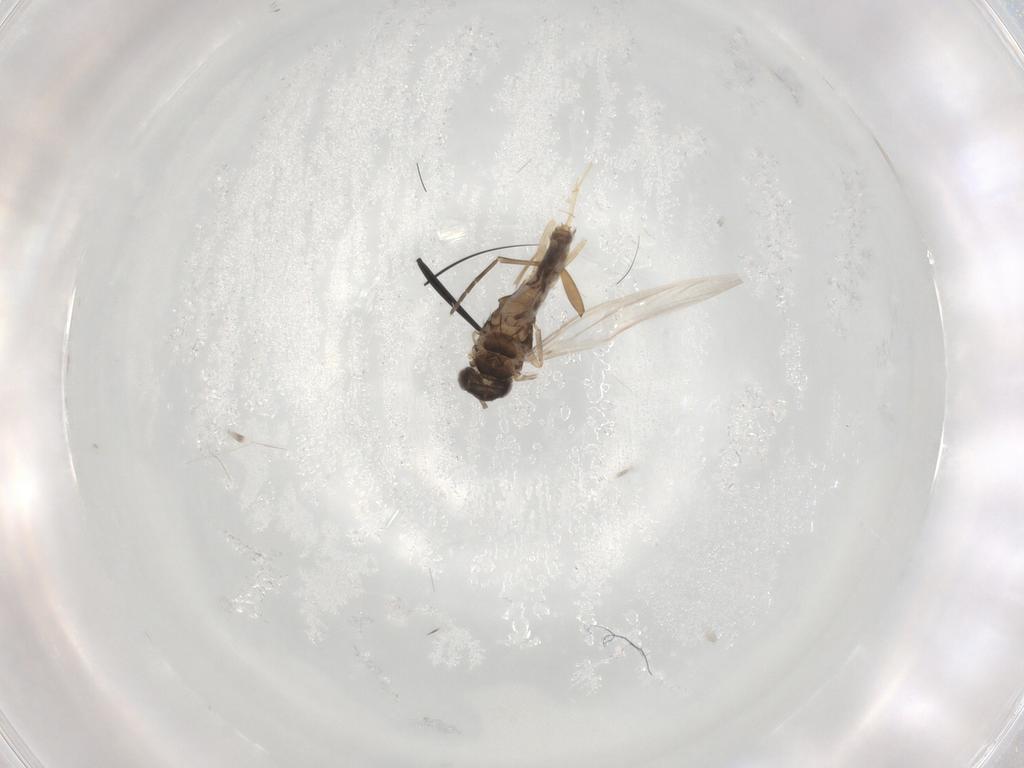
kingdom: Animalia
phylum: Arthropoda
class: Insecta
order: Diptera
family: Sciaridae
